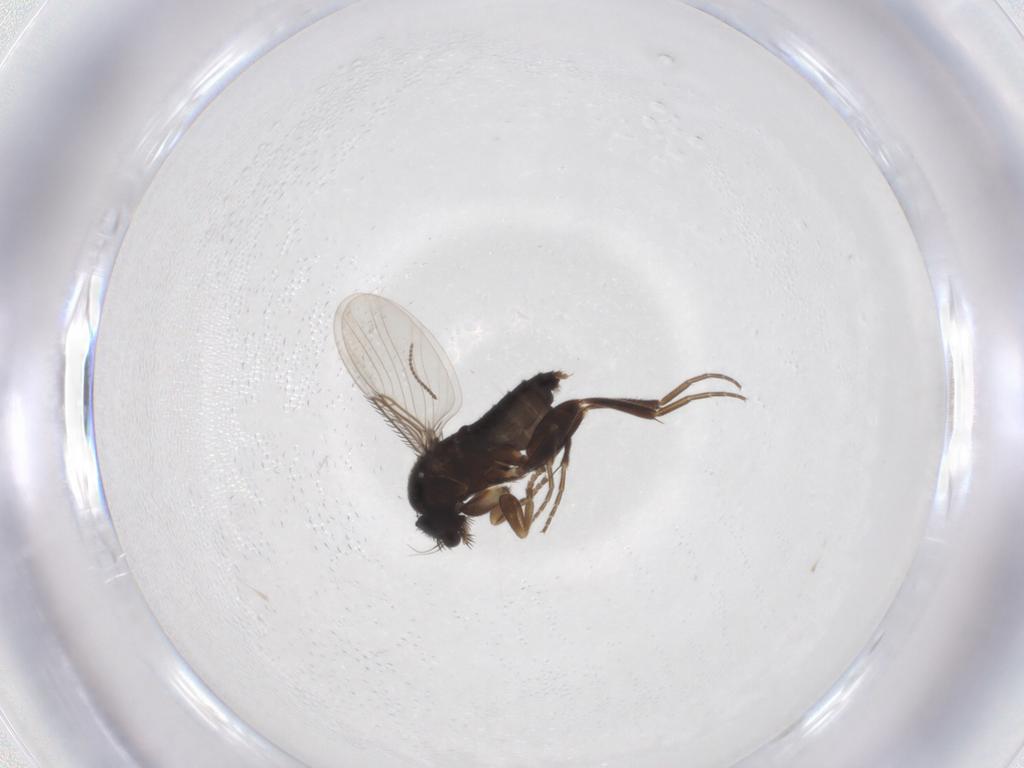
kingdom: Animalia
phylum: Arthropoda
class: Insecta
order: Diptera
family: Phoridae
